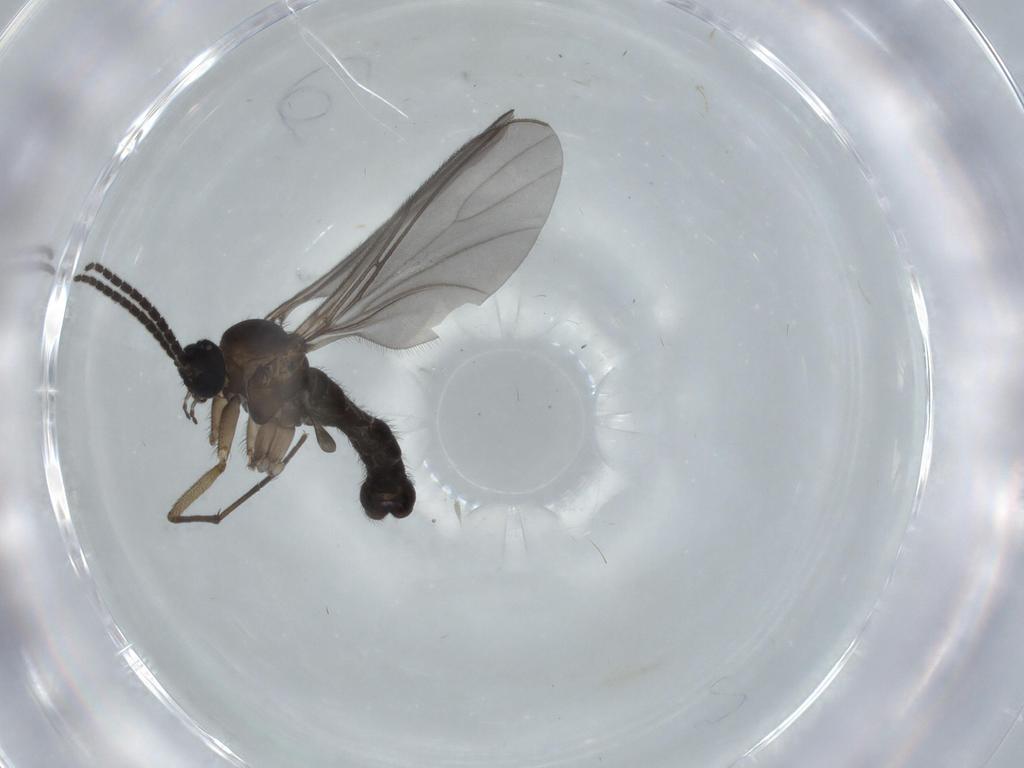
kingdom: Animalia
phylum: Arthropoda
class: Insecta
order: Diptera
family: Sciaridae
